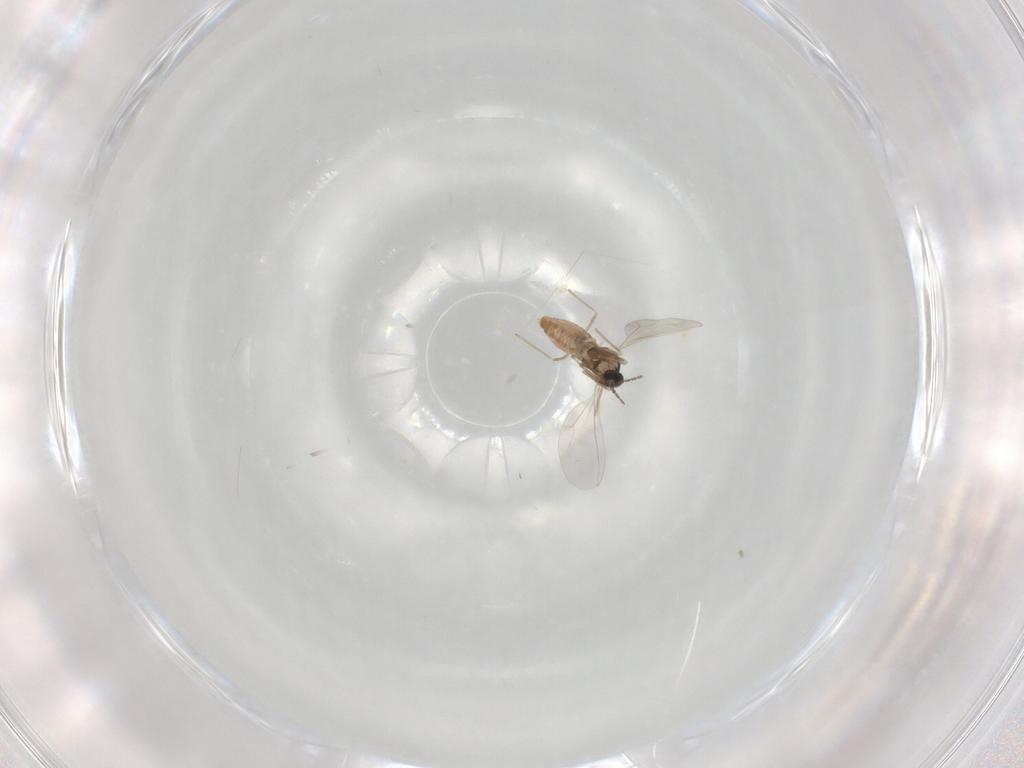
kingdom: Animalia
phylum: Arthropoda
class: Insecta
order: Diptera
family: Cecidomyiidae
